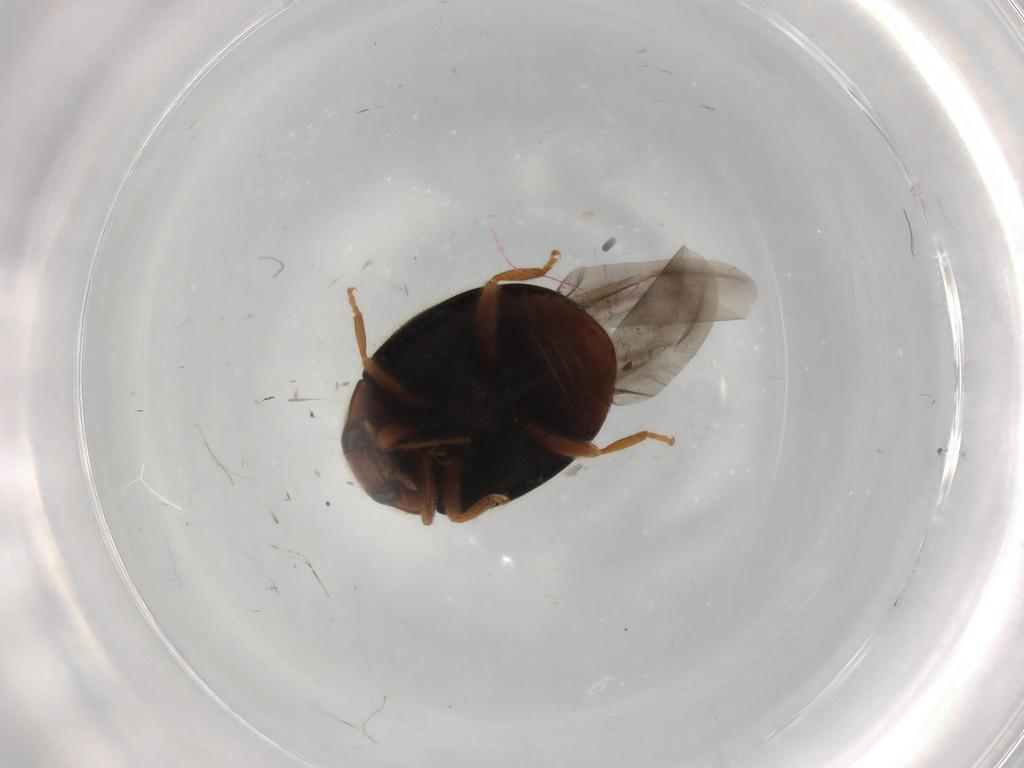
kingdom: Animalia
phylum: Arthropoda
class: Insecta
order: Coleoptera
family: Coccinellidae
